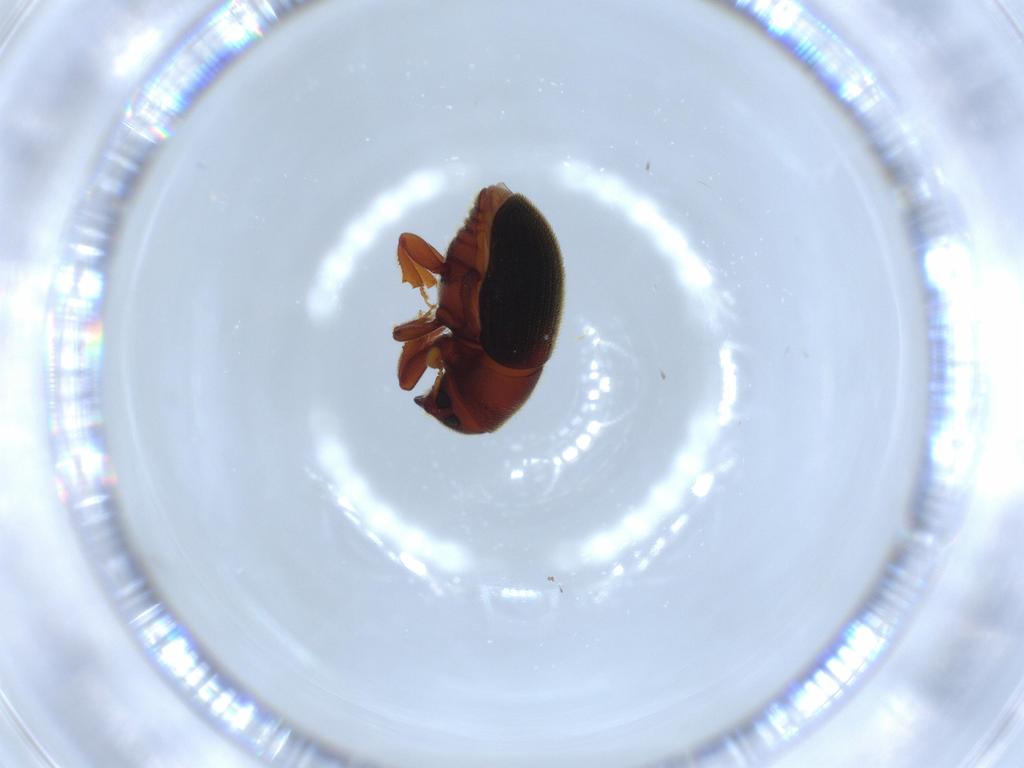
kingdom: Animalia
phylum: Arthropoda
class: Insecta
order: Coleoptera
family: Curculionidae
